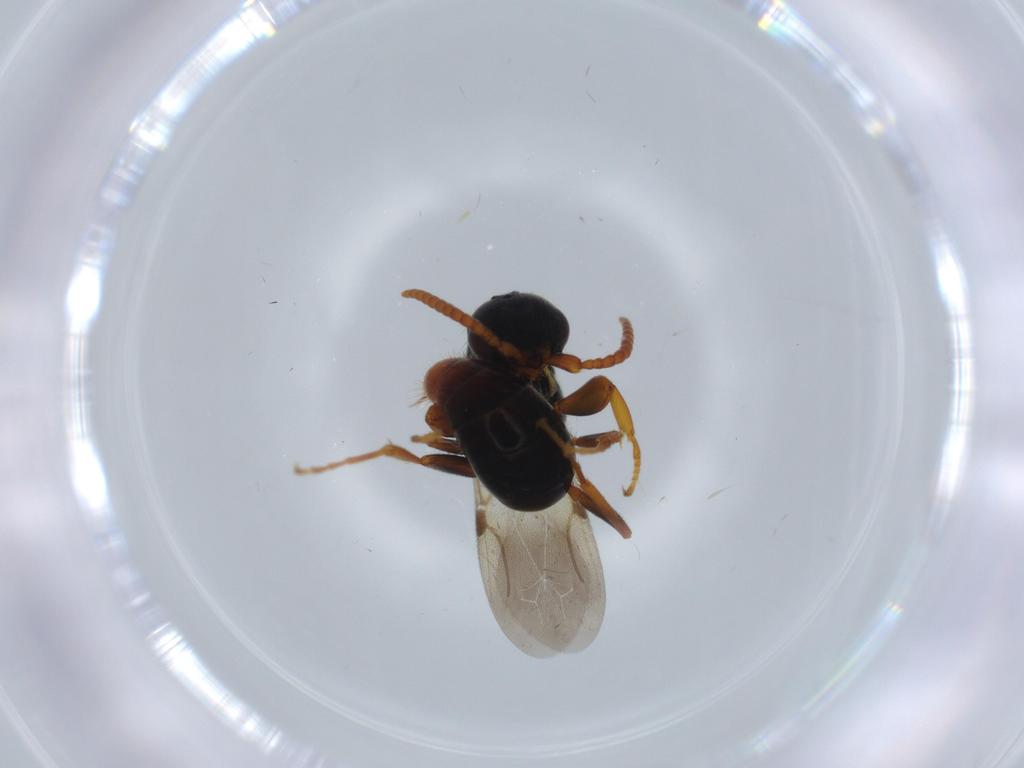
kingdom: Animalia
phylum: Arthropoda
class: Insecta
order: Hymenoptera
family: Bethylidae
